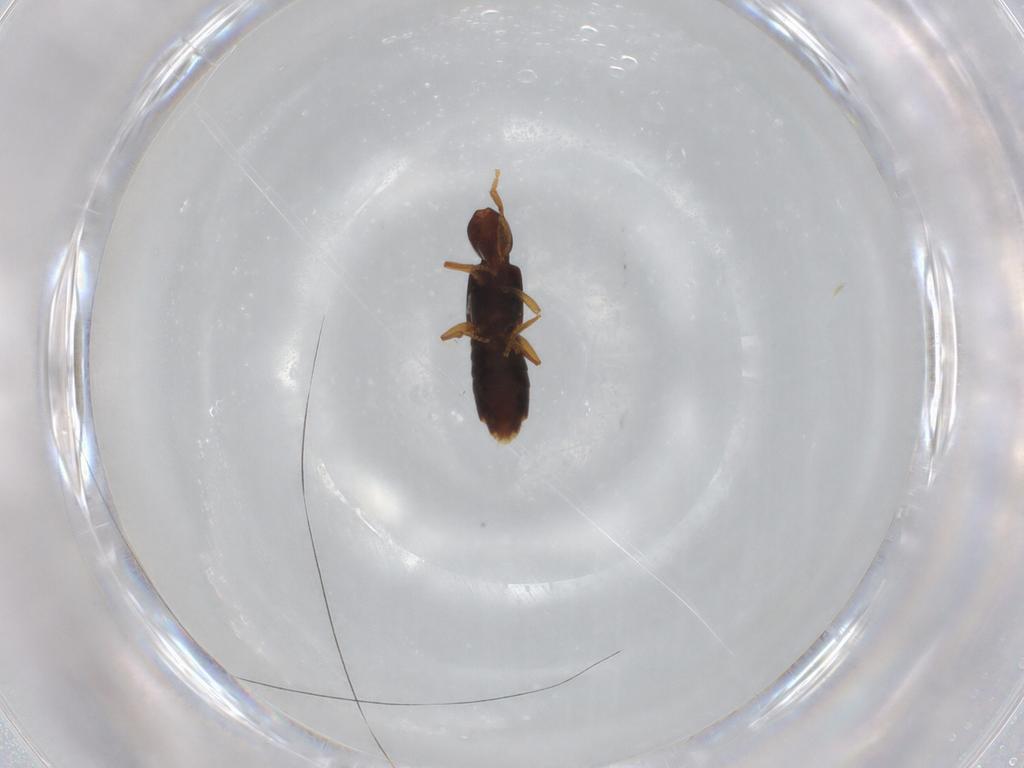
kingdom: Animalia
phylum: Arthropoda
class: Insecta
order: Coleoptera
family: Staphylinidae
